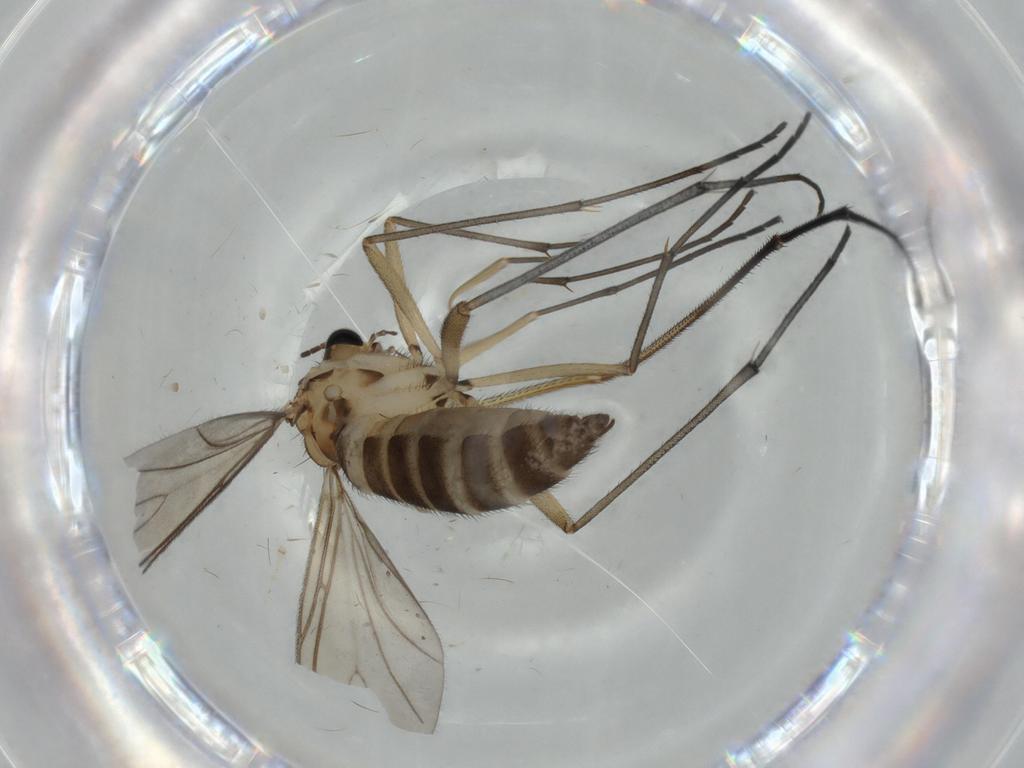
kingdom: Animalia
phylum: Arthropoda
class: Insecta
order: Diptera
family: Sciaridae
